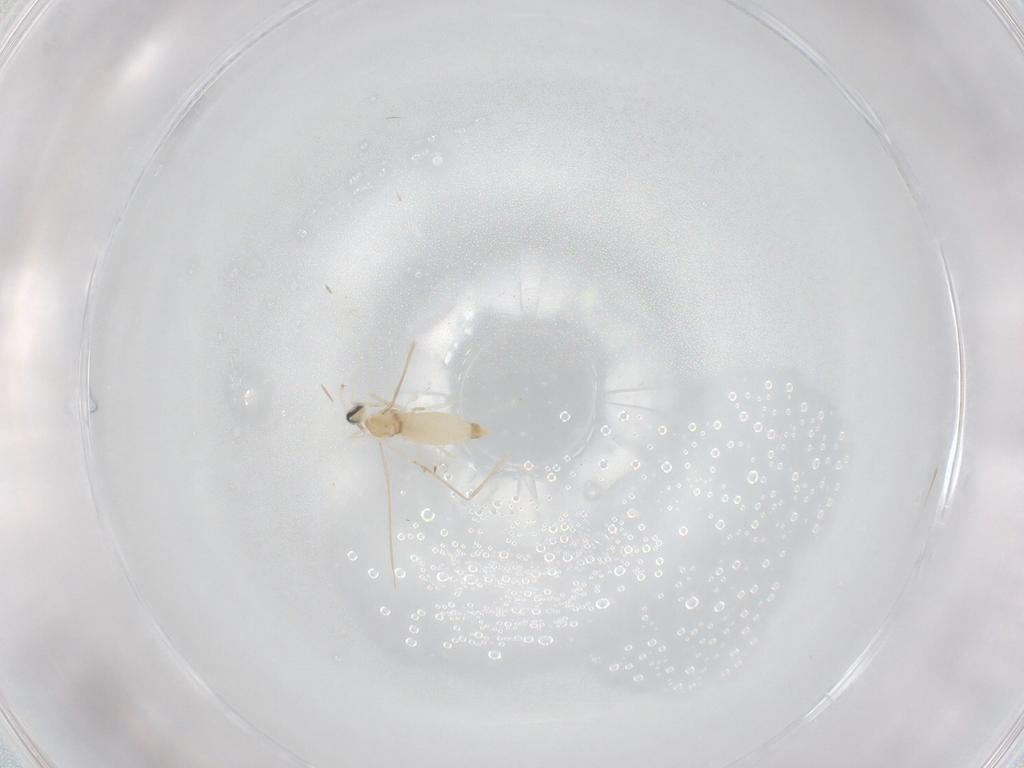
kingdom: Animalia
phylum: Arthropoda
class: Insecta
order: Diptera
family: Cecidomyiidae
